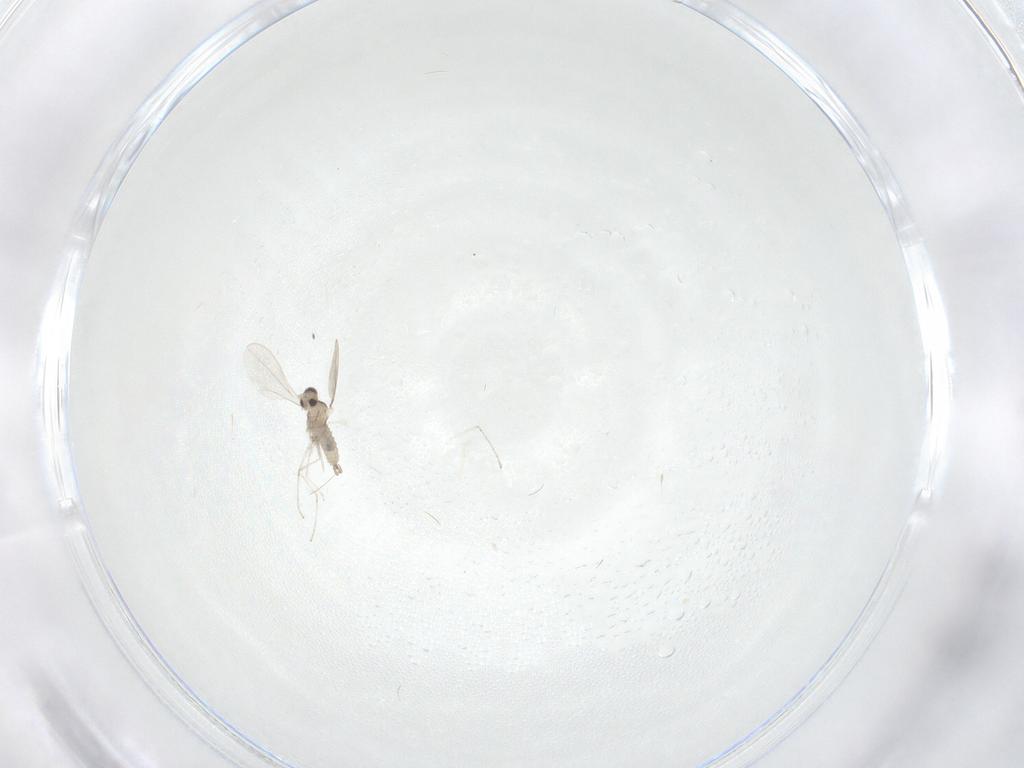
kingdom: Animalia
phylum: Arthropoda
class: Insecta
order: Diptera
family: Cecidomyiidae
